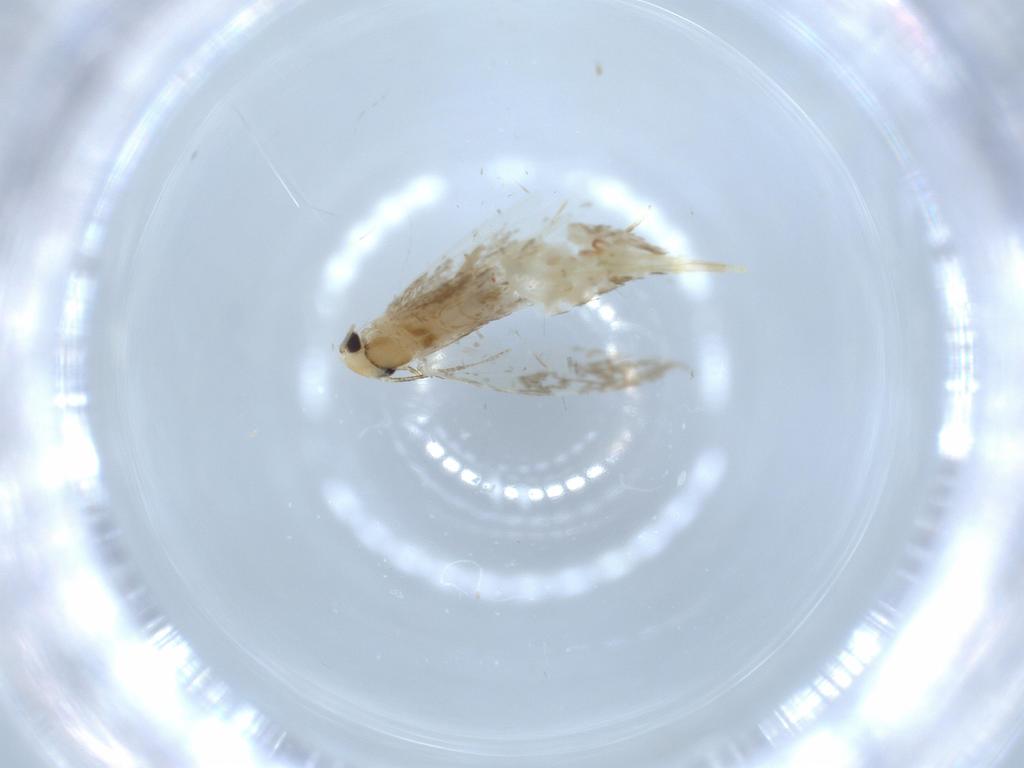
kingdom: Animalia
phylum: Arthropoda
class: Insecta
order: Lepidoptera
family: Tineidae
